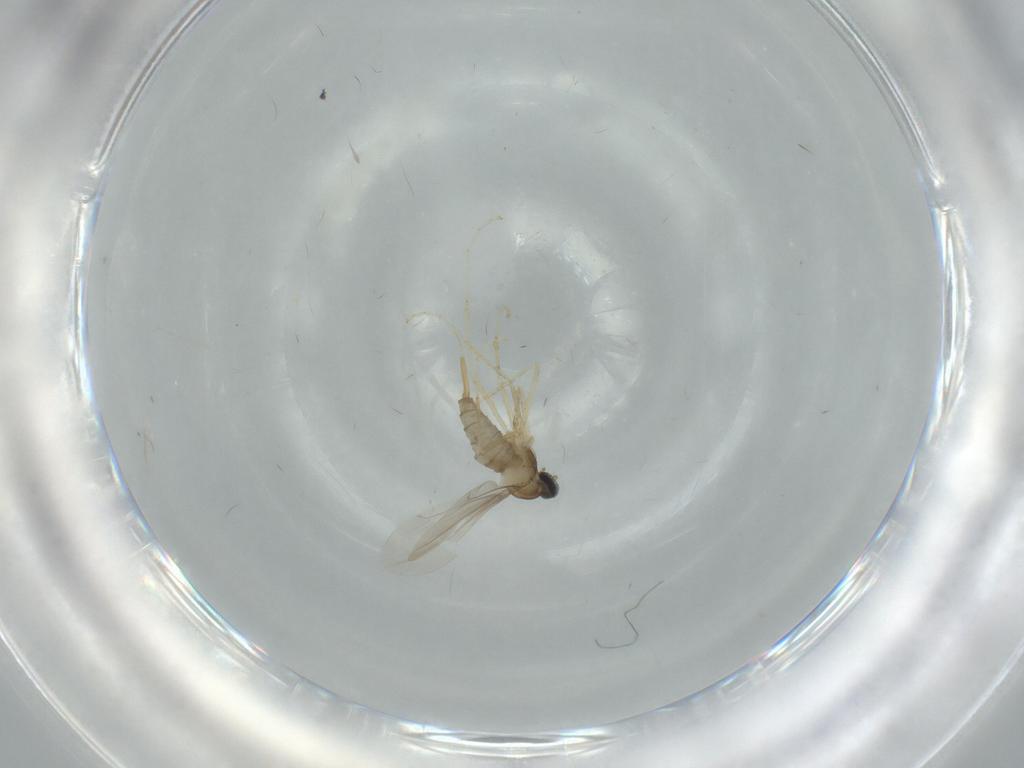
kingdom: Animalia
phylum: Arthropoda
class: Insecta
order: Diptera
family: Cecidomyiidae
